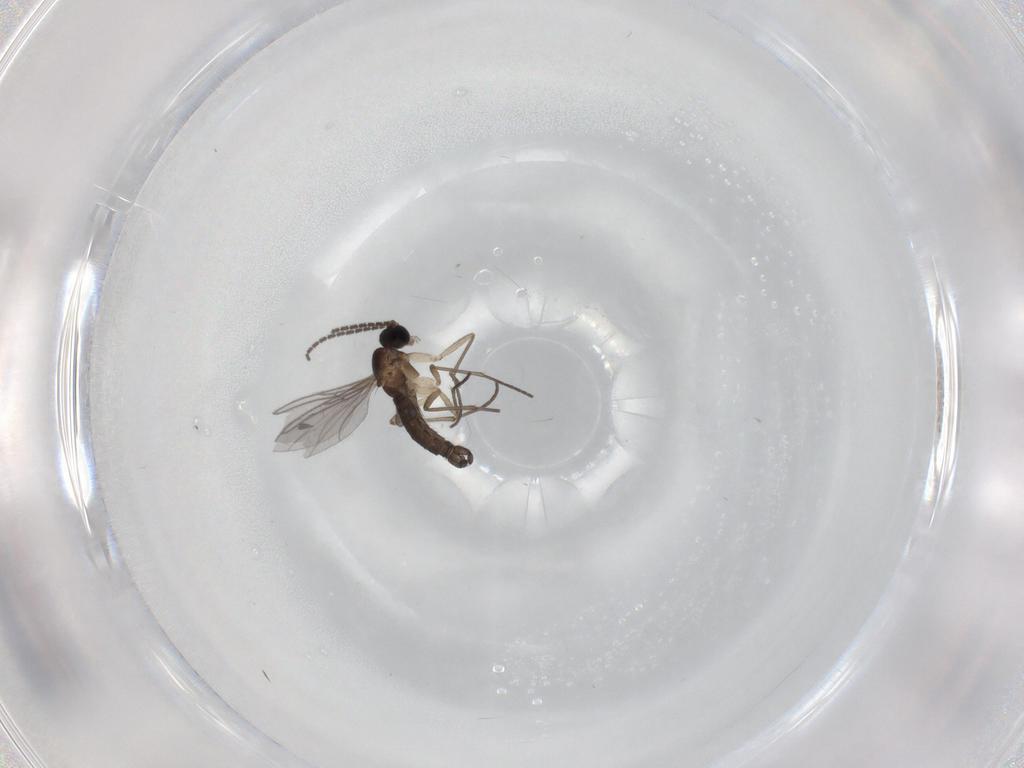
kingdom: Animalia
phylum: Arthropoda
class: Insecta
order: Diptera
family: Sciaridae
